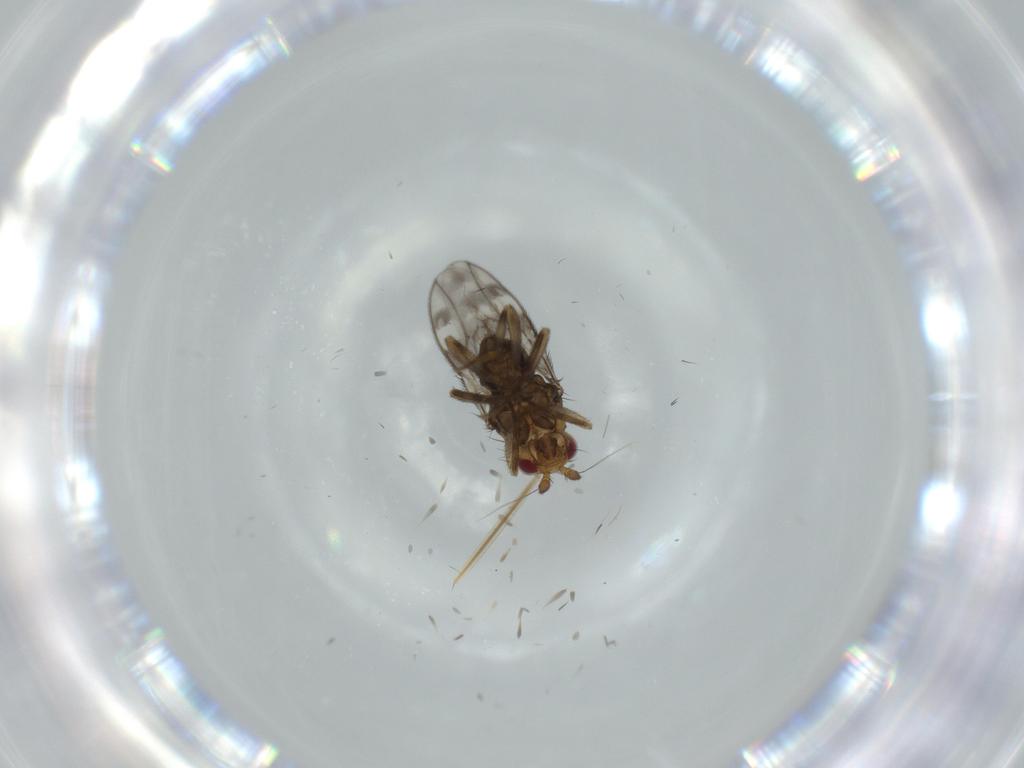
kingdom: Animalia
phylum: Arthropoda
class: Insecta
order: Diptera
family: Sphaeroceridae
